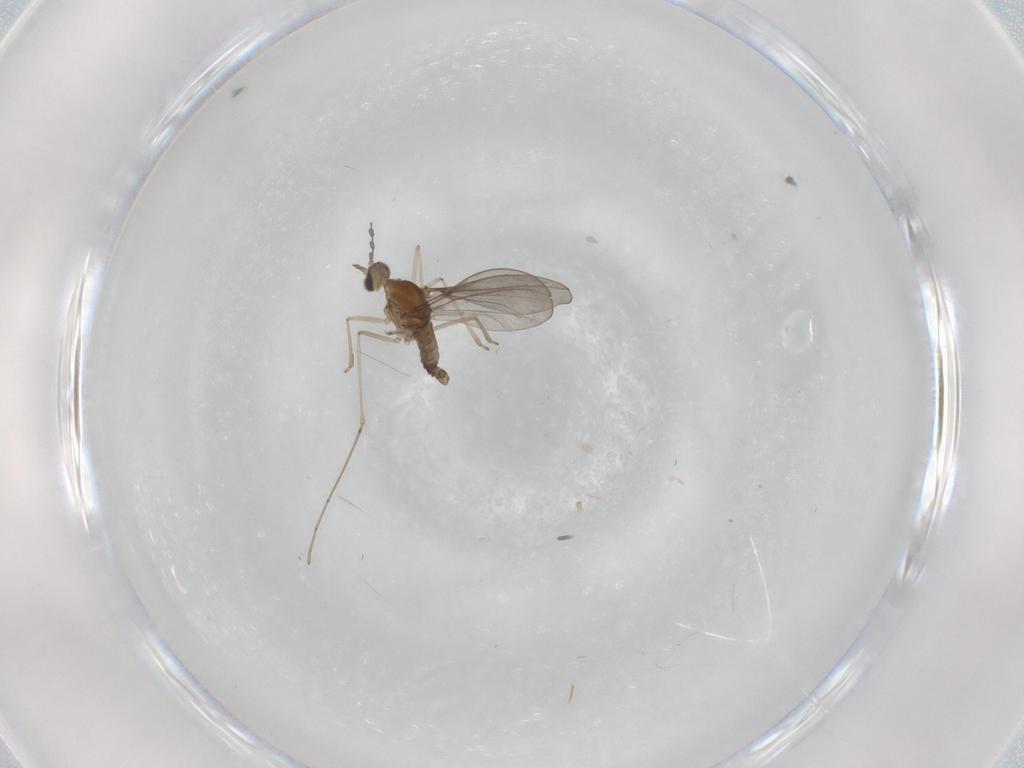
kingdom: Animalia
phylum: Arthropoda
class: Insecta
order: Diptera
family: Cecidomyiidae
